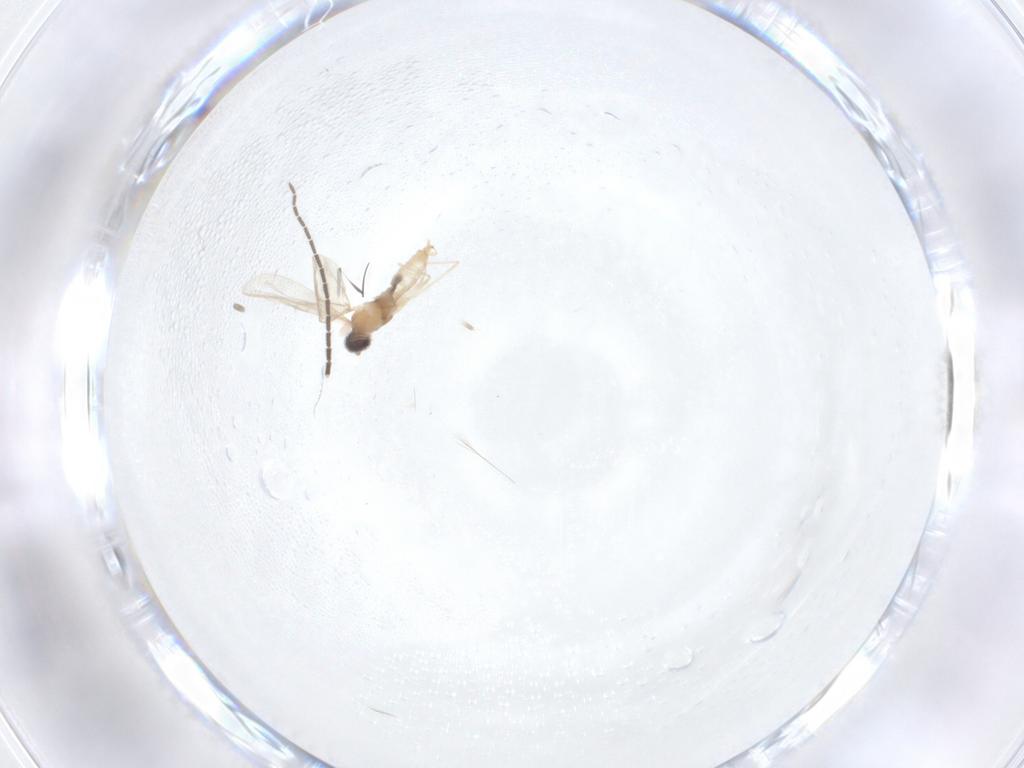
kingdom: Animalia
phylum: Arthropoda
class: Insecta
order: Diptera
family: Cecidomyiidae
